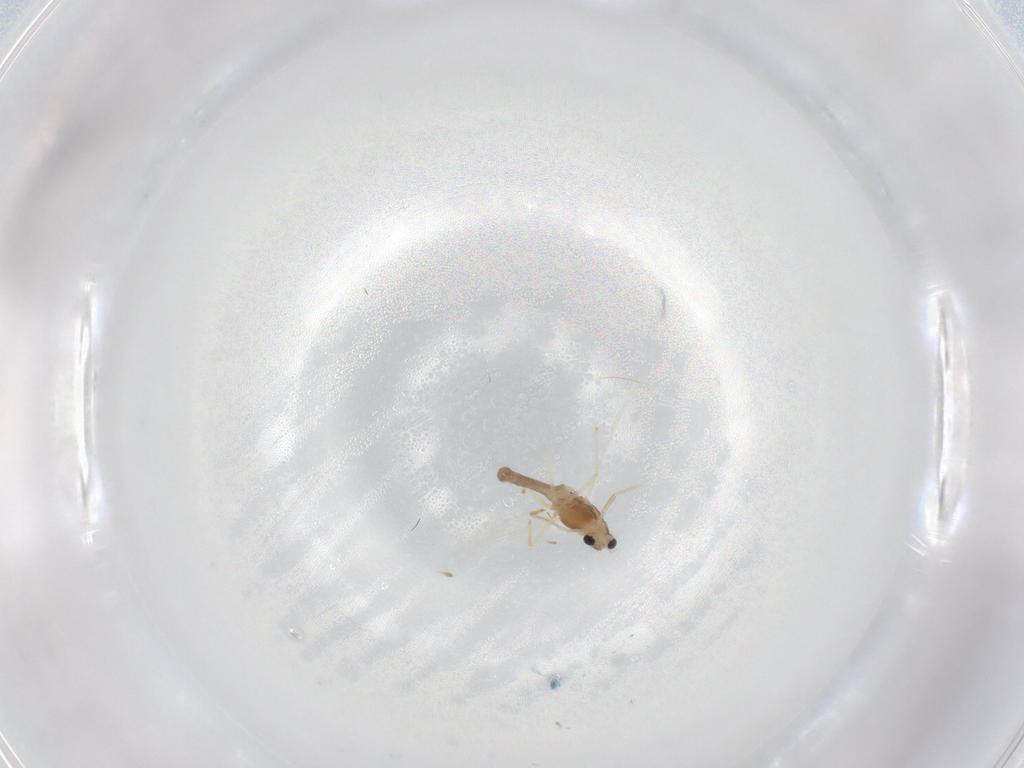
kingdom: Animalia
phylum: Arthropoda
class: Insecta
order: Diptera
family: Chironomidae
